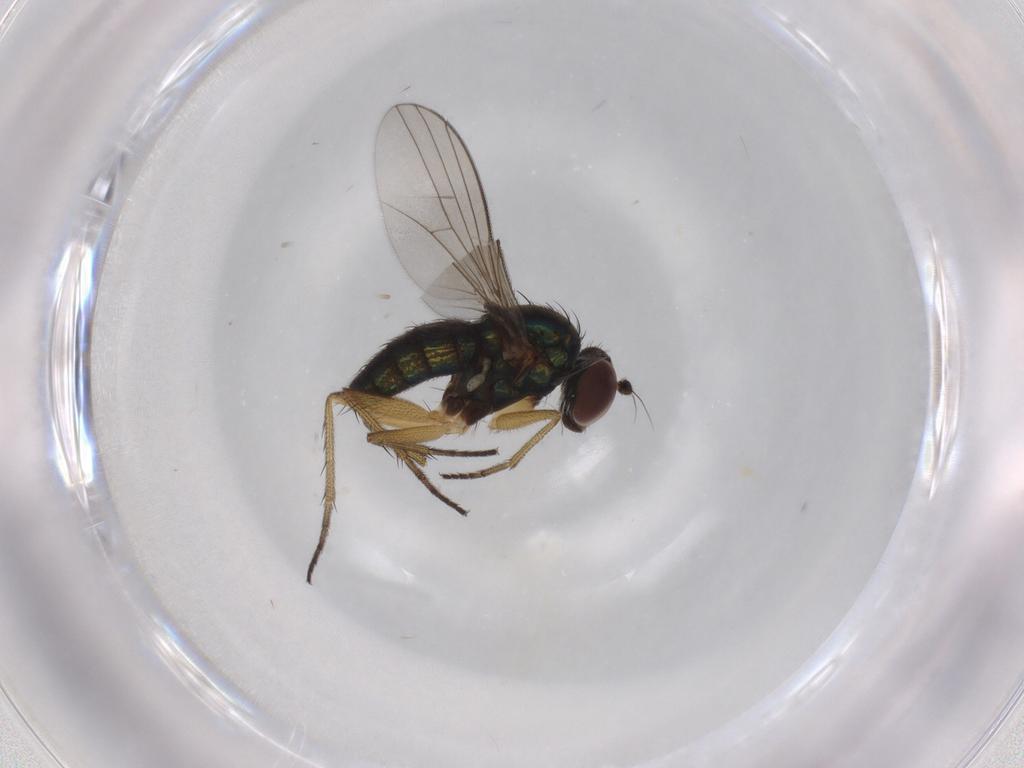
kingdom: Animalia
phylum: Arthropoda
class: Insecta
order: Diptera
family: Dolichopodidae
